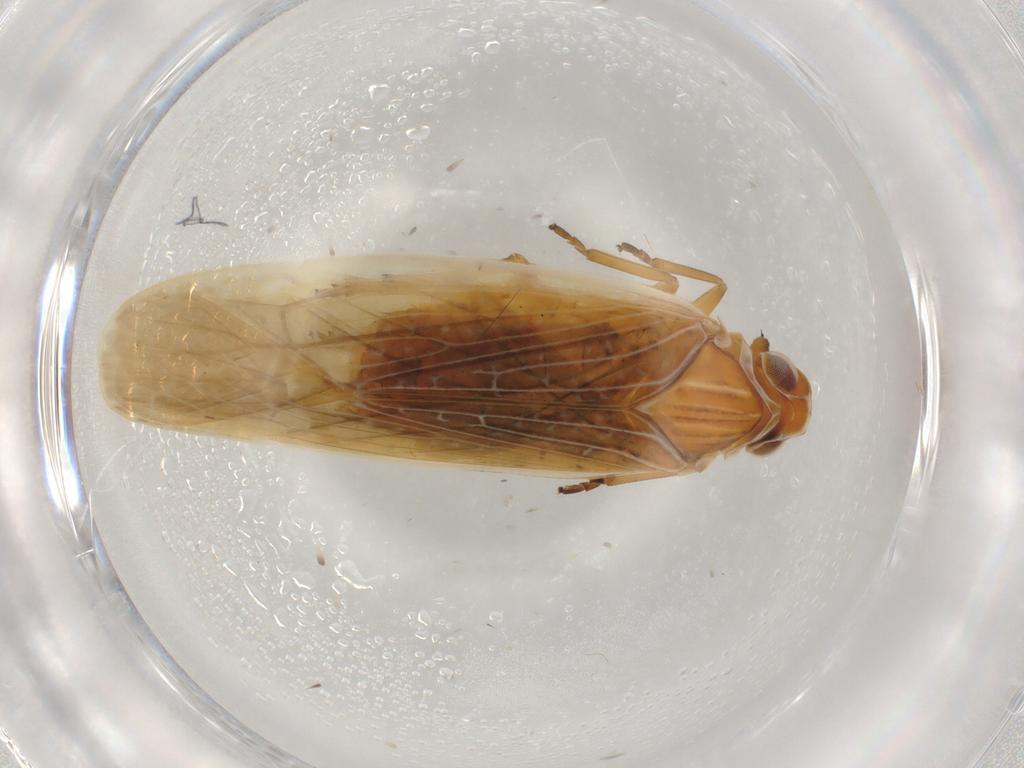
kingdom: Animalia
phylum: Arthropoda
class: Insecta
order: Hemiptera
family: Achilidae
